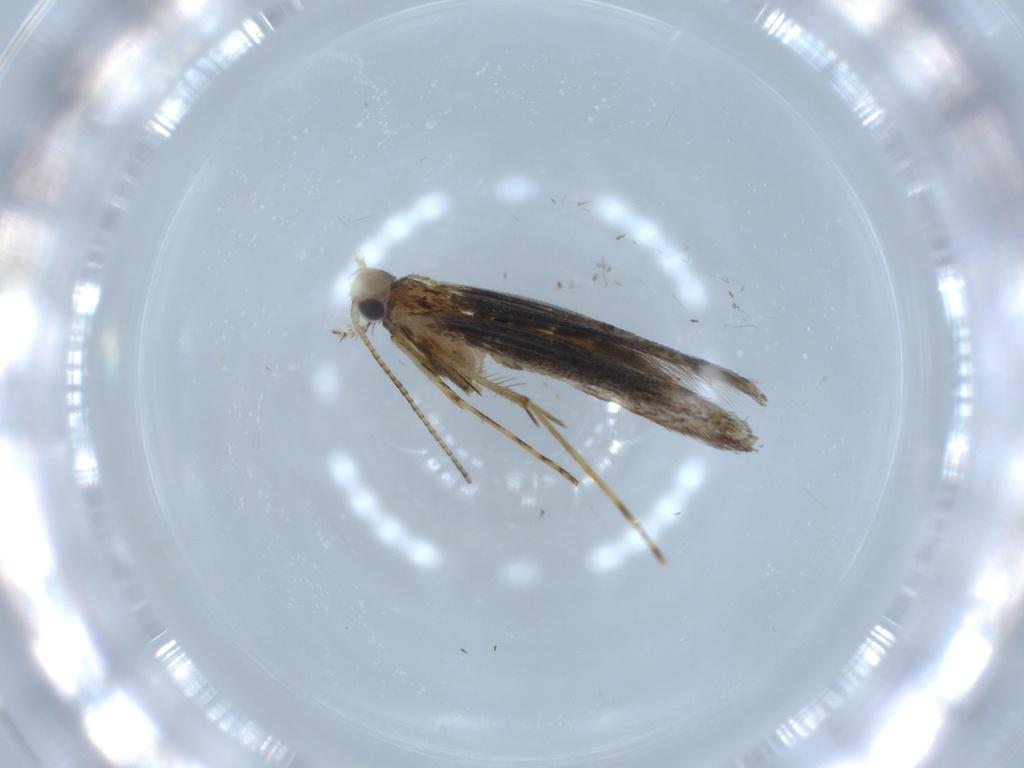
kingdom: Animalia
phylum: Arthropoda
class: Insecta
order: Lepidoptera
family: Gracillariidae
